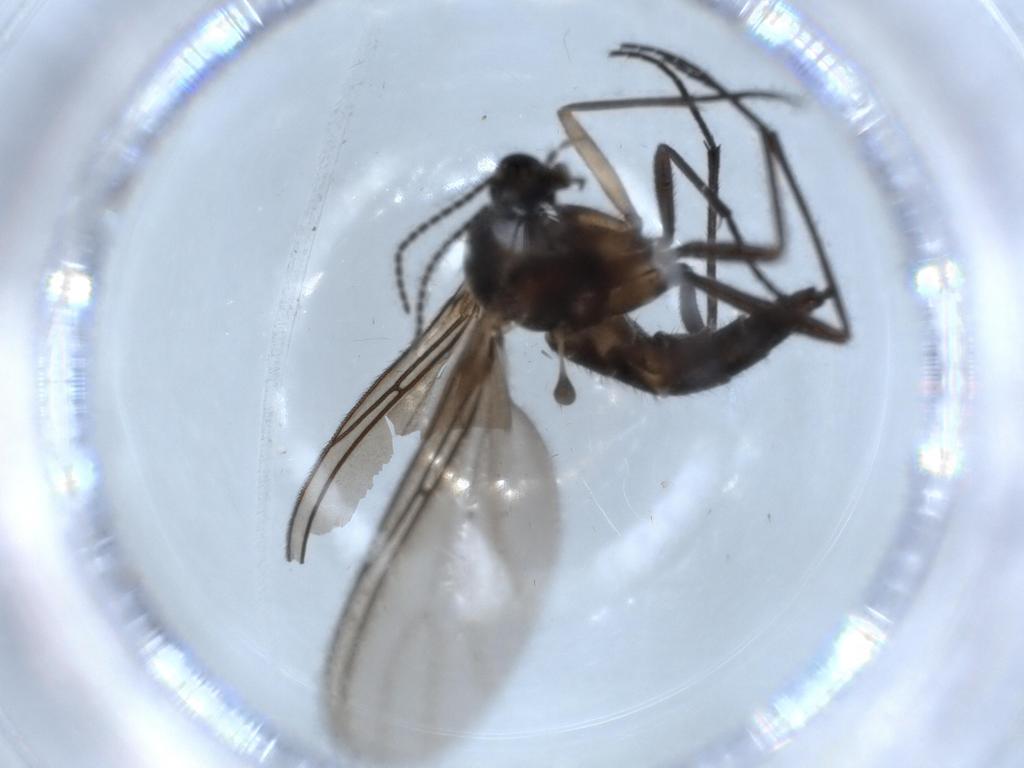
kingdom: Animalia
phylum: Arthropoda
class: Insecta
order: Diptera
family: Sciaridae
